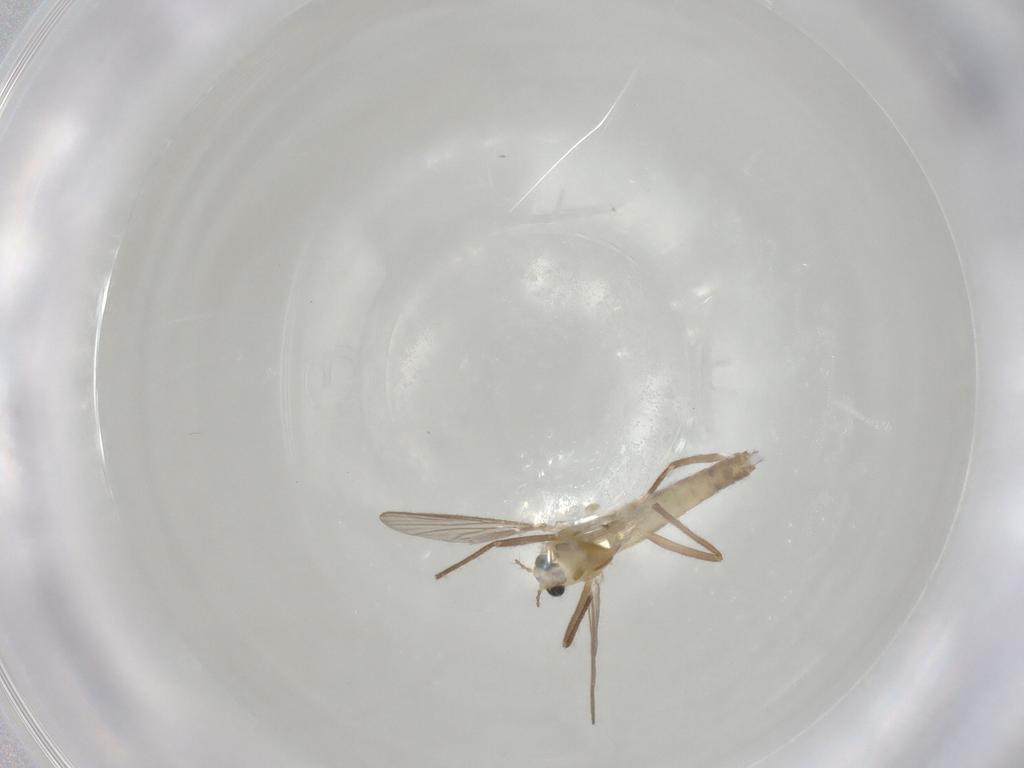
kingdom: Animalia
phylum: Arthropoda
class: Insecta
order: Diptera
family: Chironomidae
